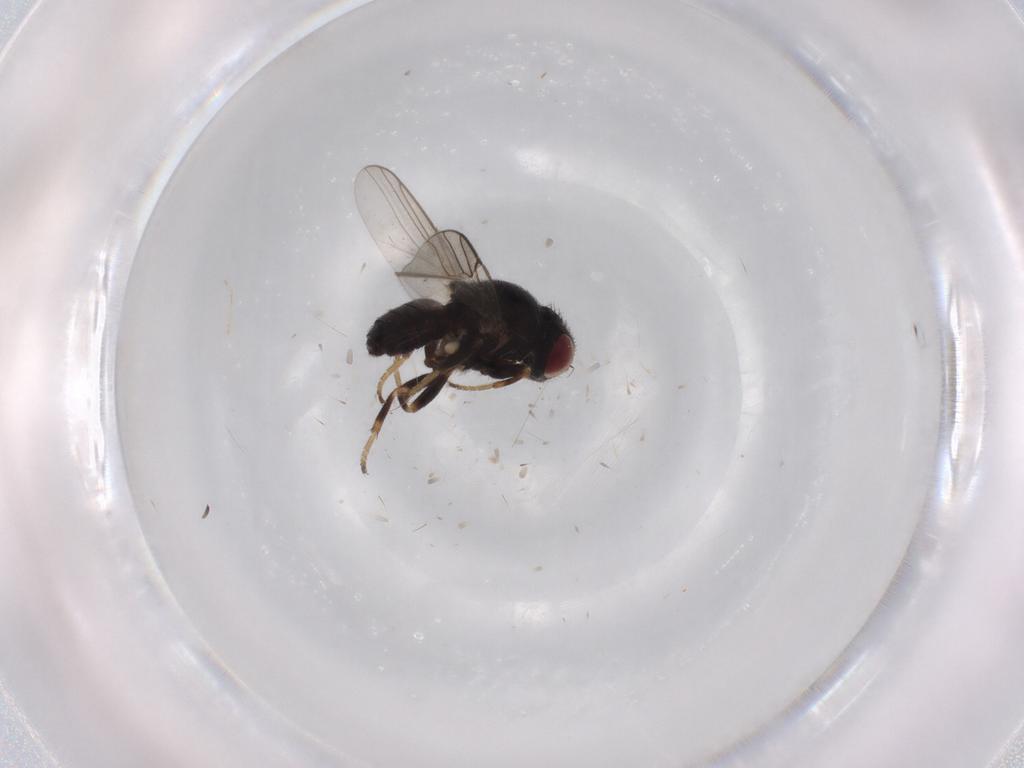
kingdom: Animalia
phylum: Arthropoda
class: Insecta
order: Diptera
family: Chloropidae
